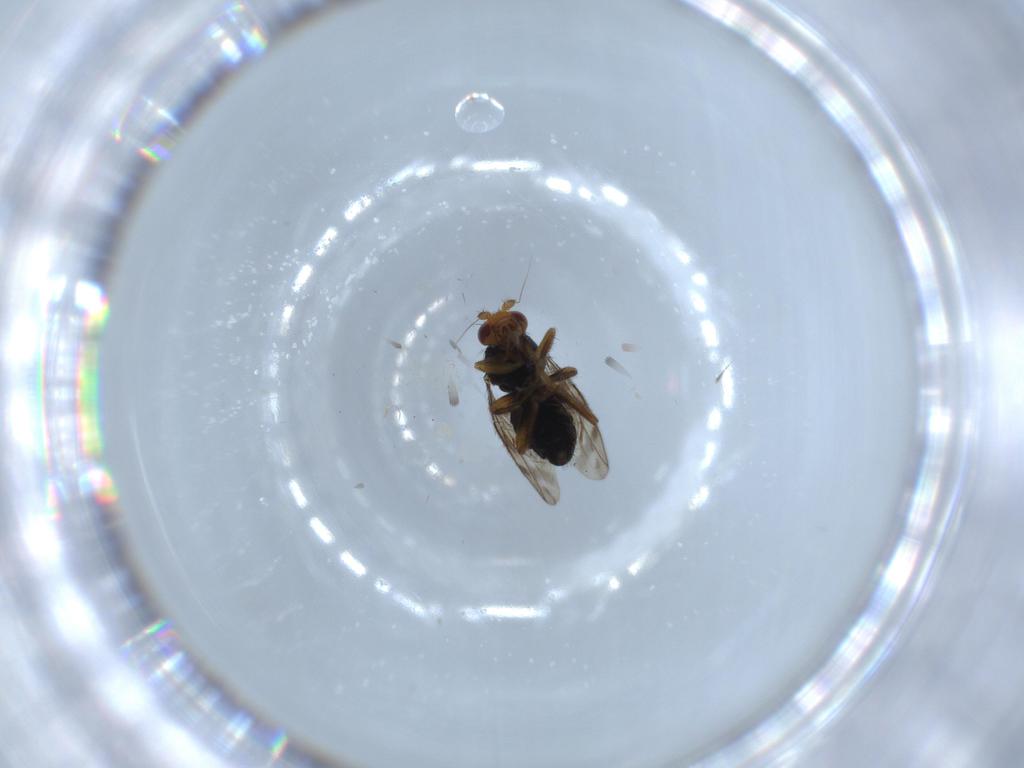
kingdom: Animalia
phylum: Arthropoda
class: Insecta
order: Diptera
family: Sphaeroceridae
